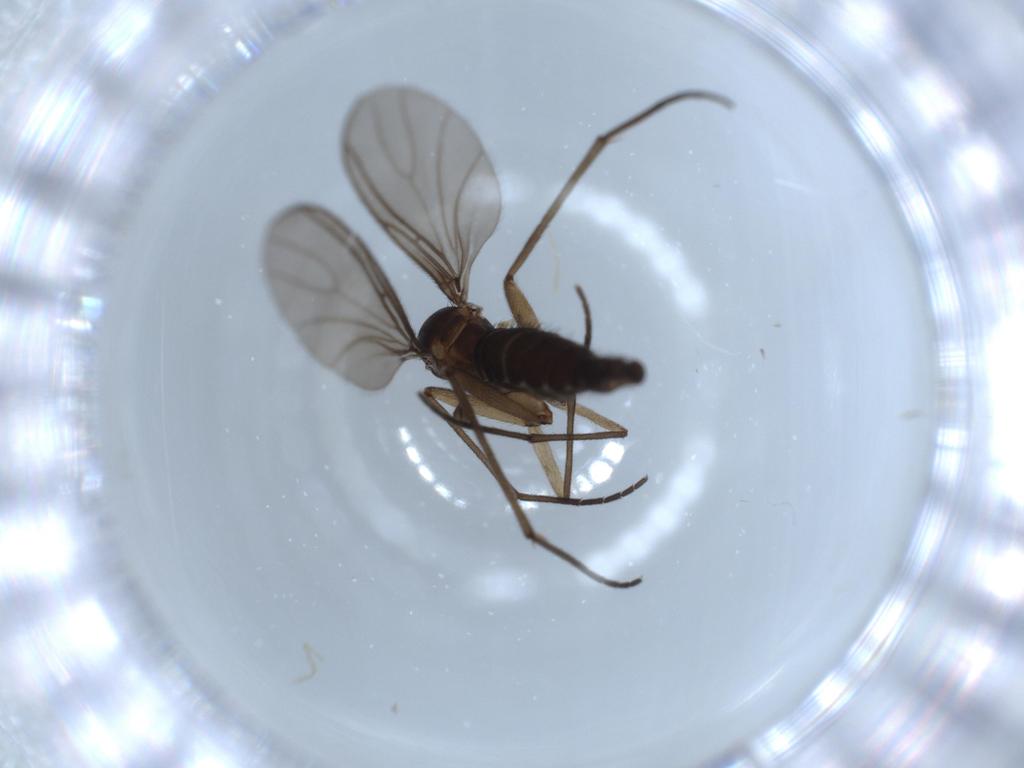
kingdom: Animalia
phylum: Arthropoda
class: Insecta
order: Diptera
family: Sciaridae
